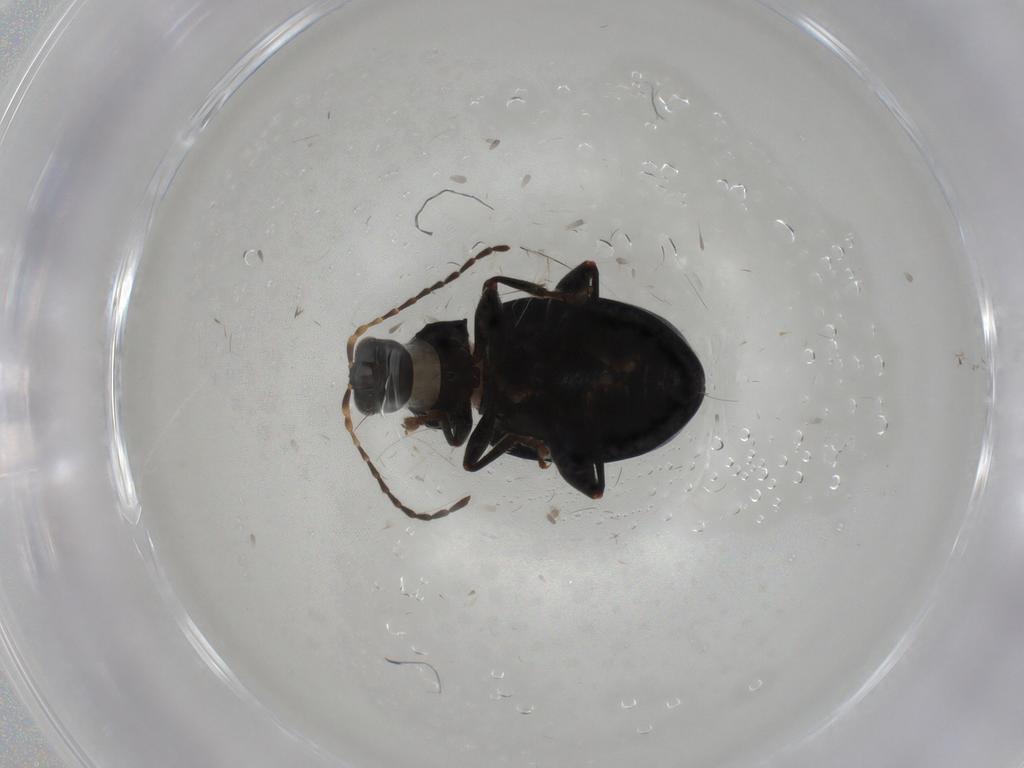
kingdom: Animalia
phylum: Arthropoda
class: Insecta
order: Coleoptera
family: Chrysomelidae
